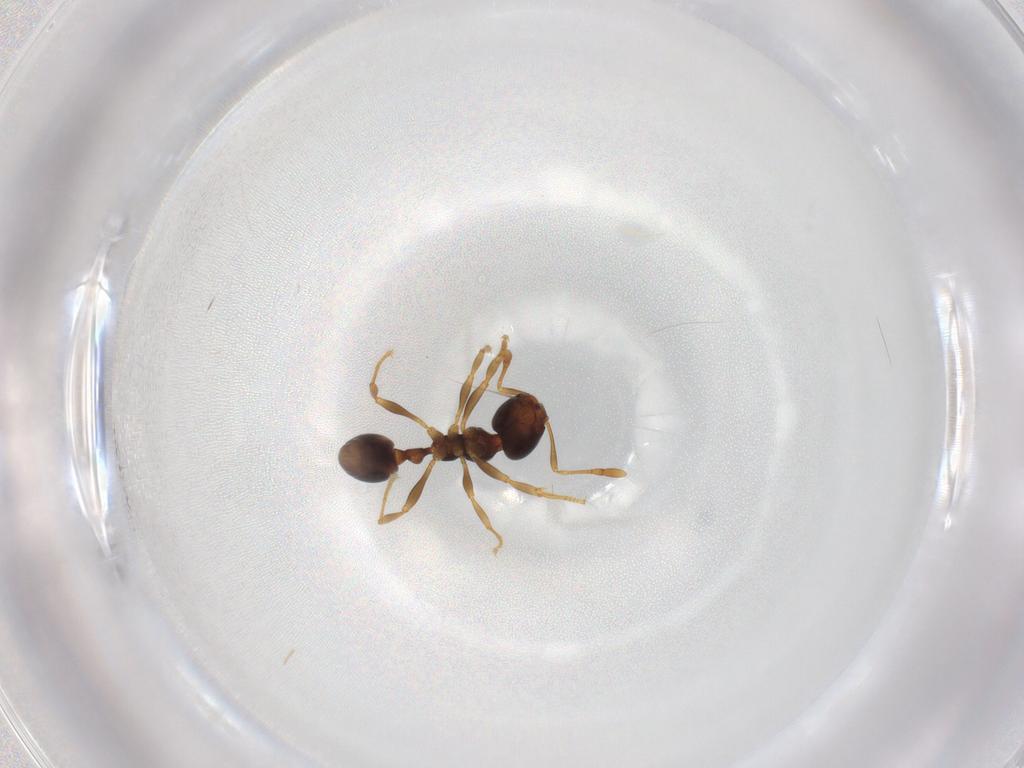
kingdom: Animalia
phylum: Arthropoda
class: Insecta
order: Hymenoptera
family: Formicidae
